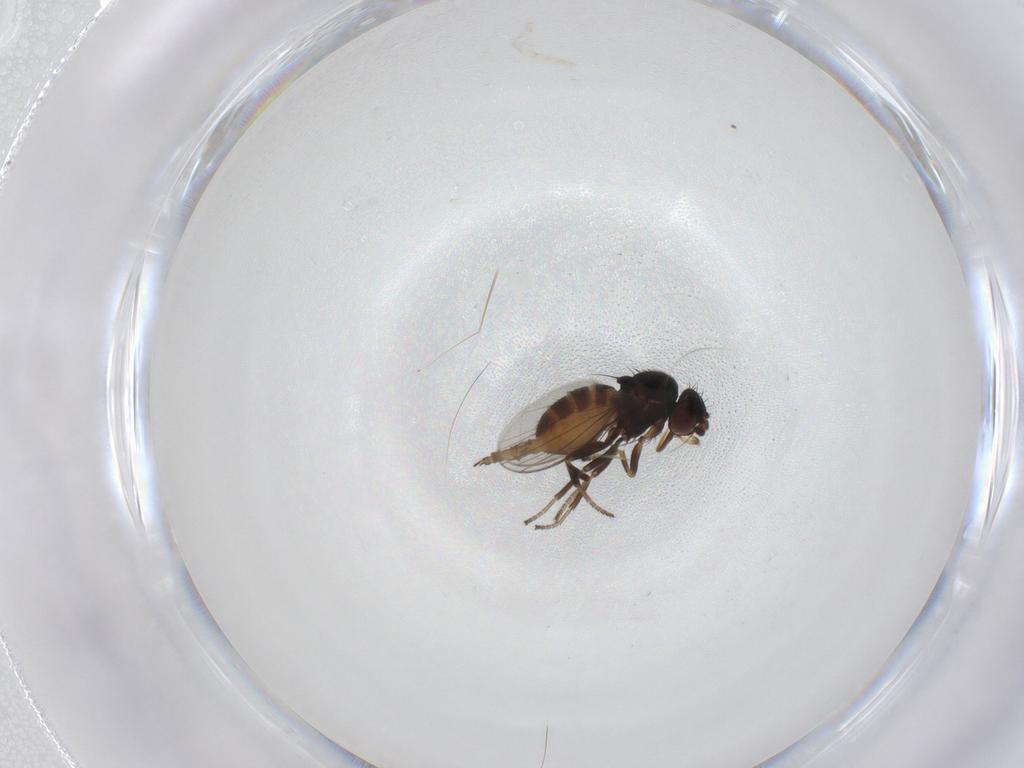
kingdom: Animalia
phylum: Arthropoda
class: Insecta
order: Diptera
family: Milichiidae
